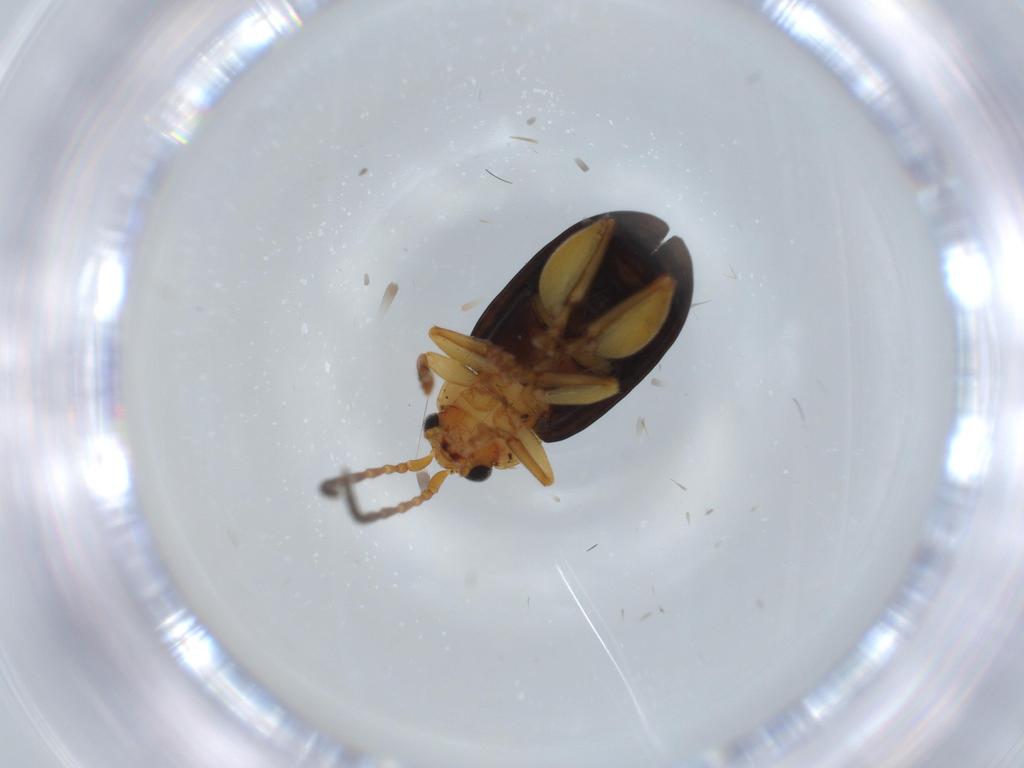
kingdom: Animalia
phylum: Arthropoda
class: Insecta
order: Coleoptera
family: Chrysomelidae
